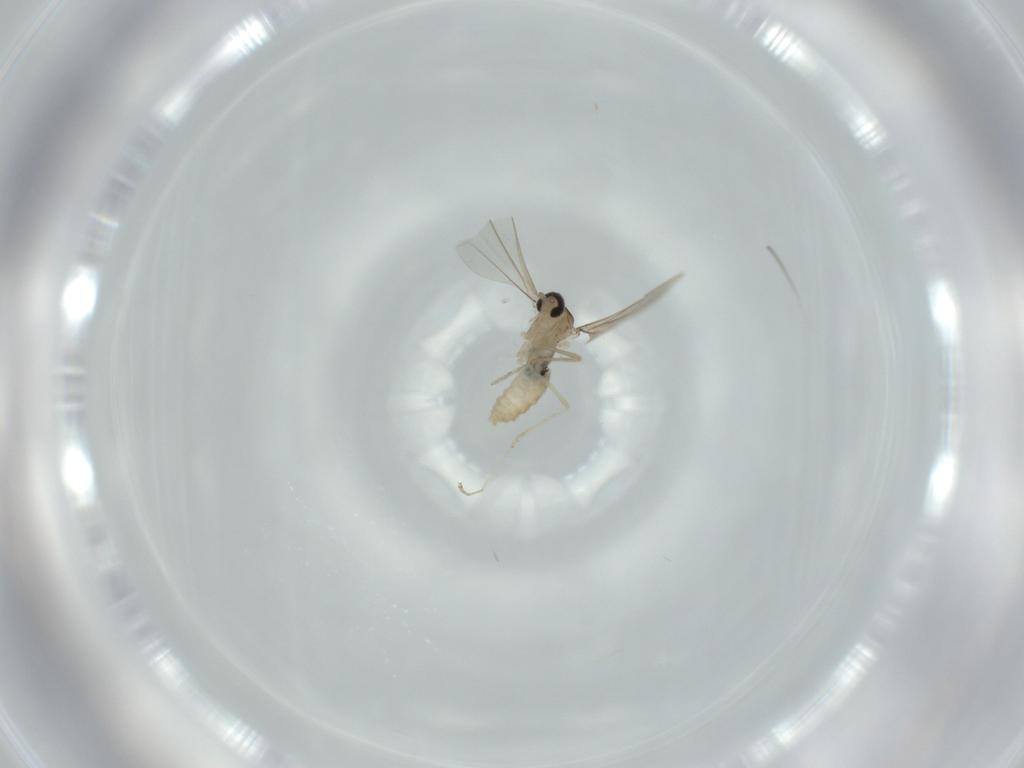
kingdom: Animalia
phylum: Arthropoda
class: Insecta
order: Diptera
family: Cecidomyiidae
